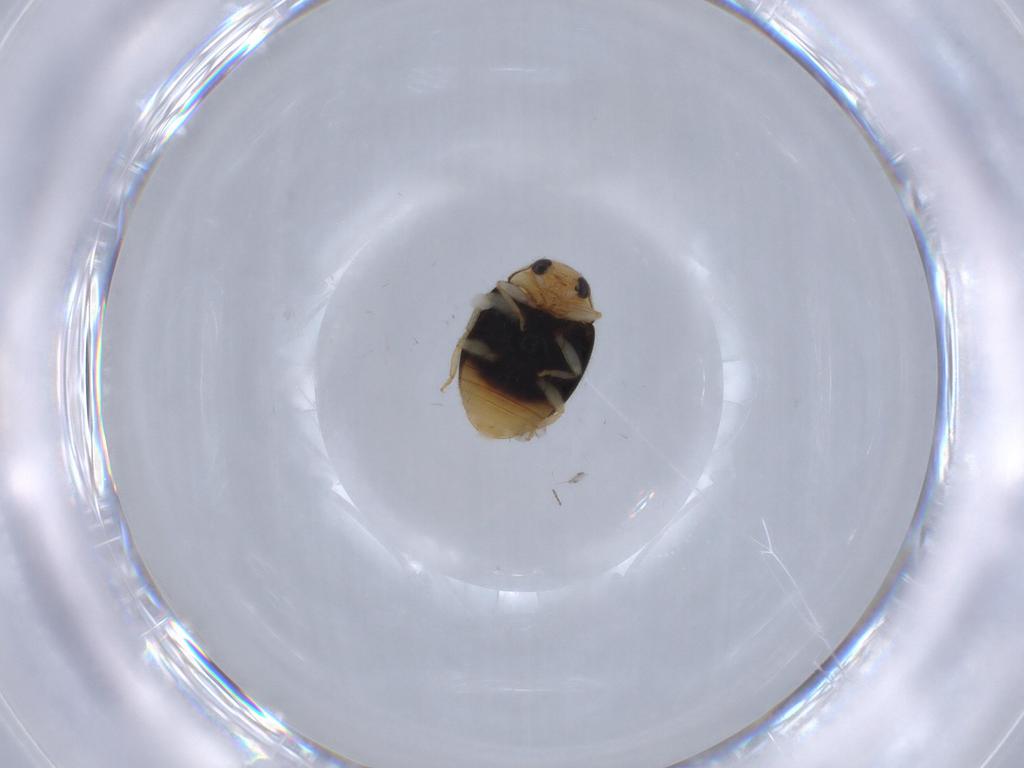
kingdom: Animalia
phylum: Arthropoda
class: Insecta
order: Coleoptera
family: Coccinellidae
